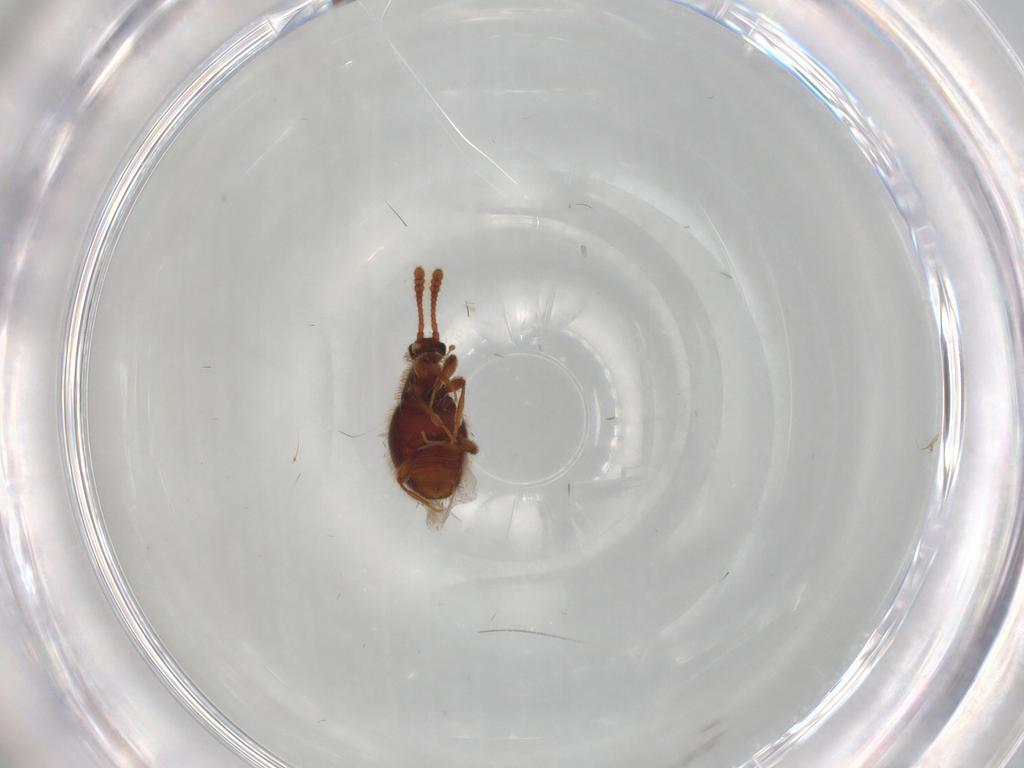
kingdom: Animalia
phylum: Arthropoda
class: Insecta
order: Coleoptera
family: Staphylinidae
